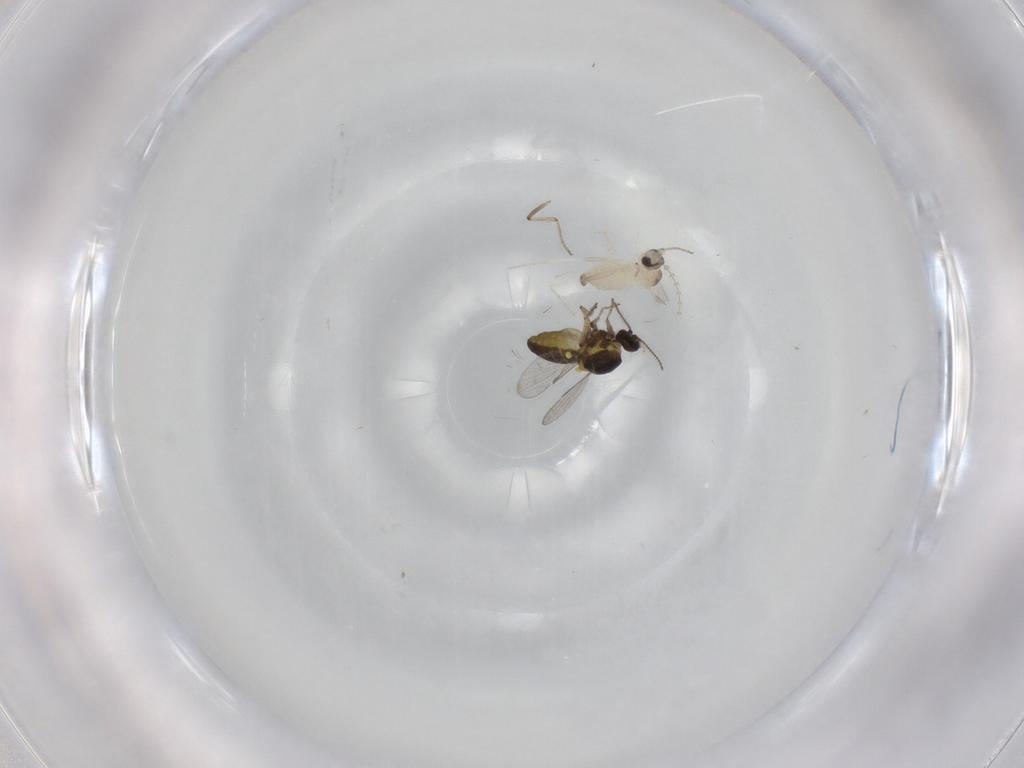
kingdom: Animalia
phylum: Arthropoda
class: Insecta
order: Diptera
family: Cecidomyiidae
